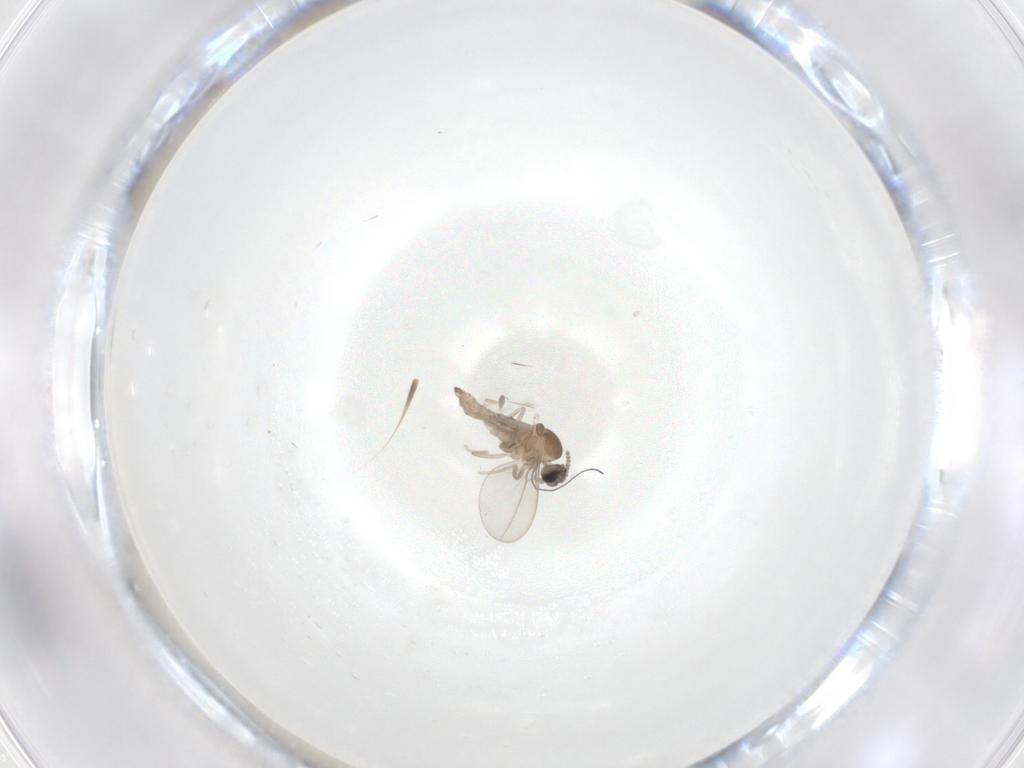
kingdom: Animalia
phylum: Arthropoda
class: Insecta
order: Diptera
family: Cecidomyiidae
